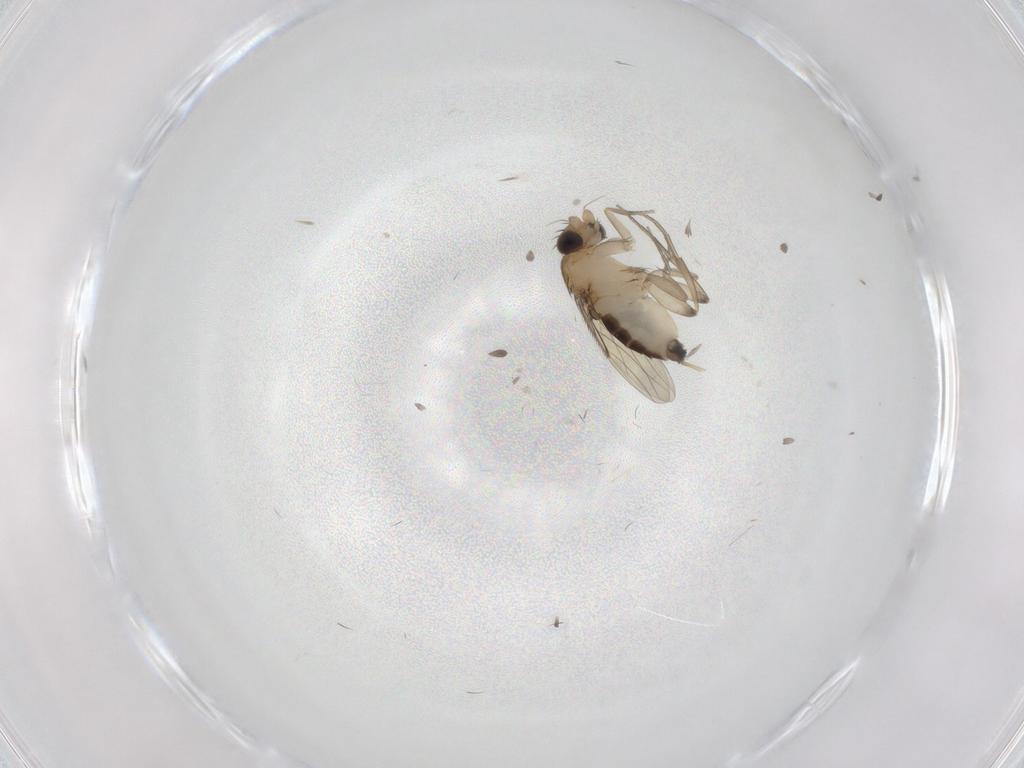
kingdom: Animalia
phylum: Arthropoda
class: Insecta
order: Diptera
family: Phoridae
